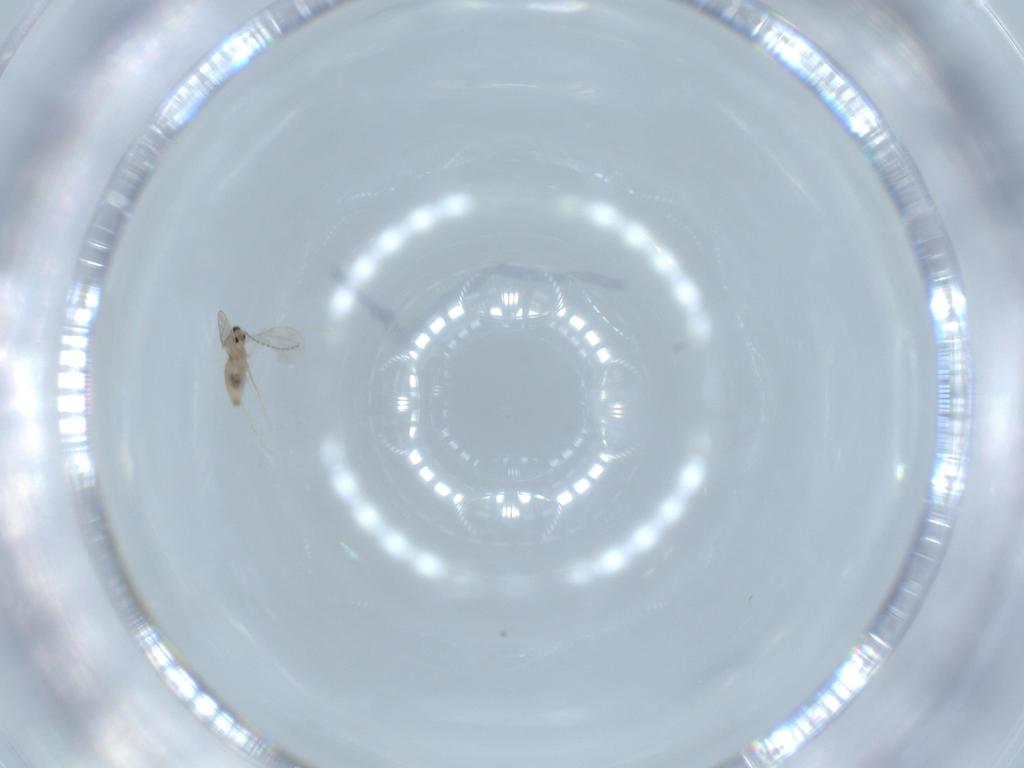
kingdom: Animalia
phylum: Arthropoda
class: Insecta
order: Diptera
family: Cecidomyiidae
